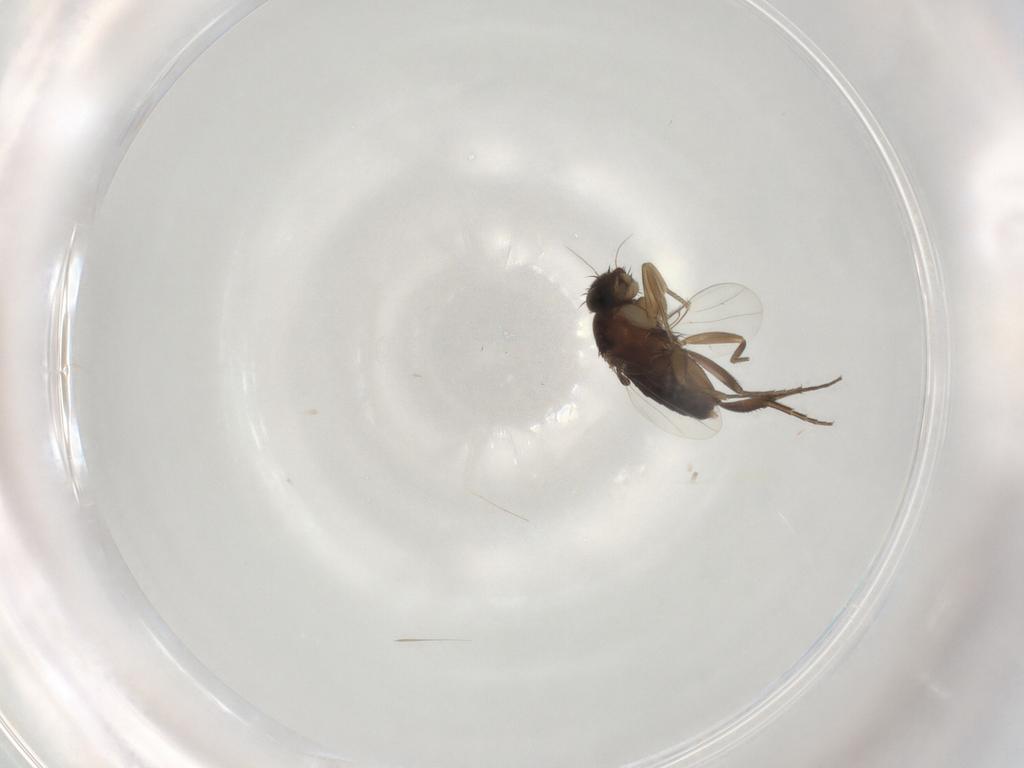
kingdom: Animalia
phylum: Arthropoda
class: Insecta
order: Diptera
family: Phoridae
